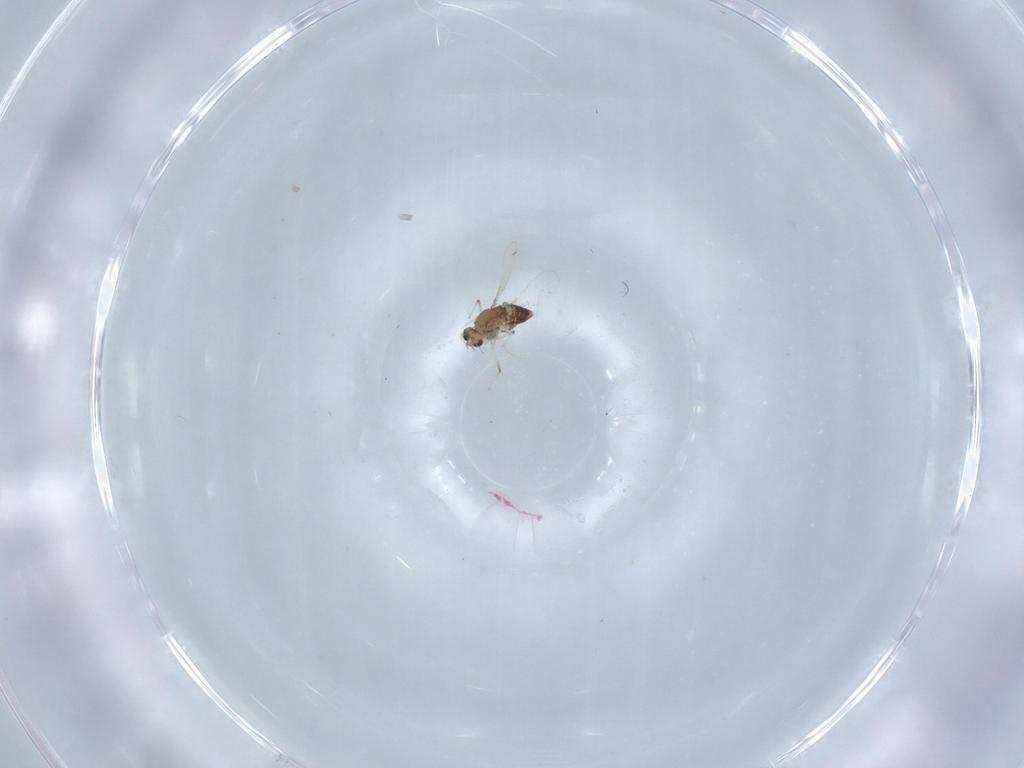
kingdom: Animalia
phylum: Arthropoda
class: Insecta
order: Diptera
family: Chironomidae
